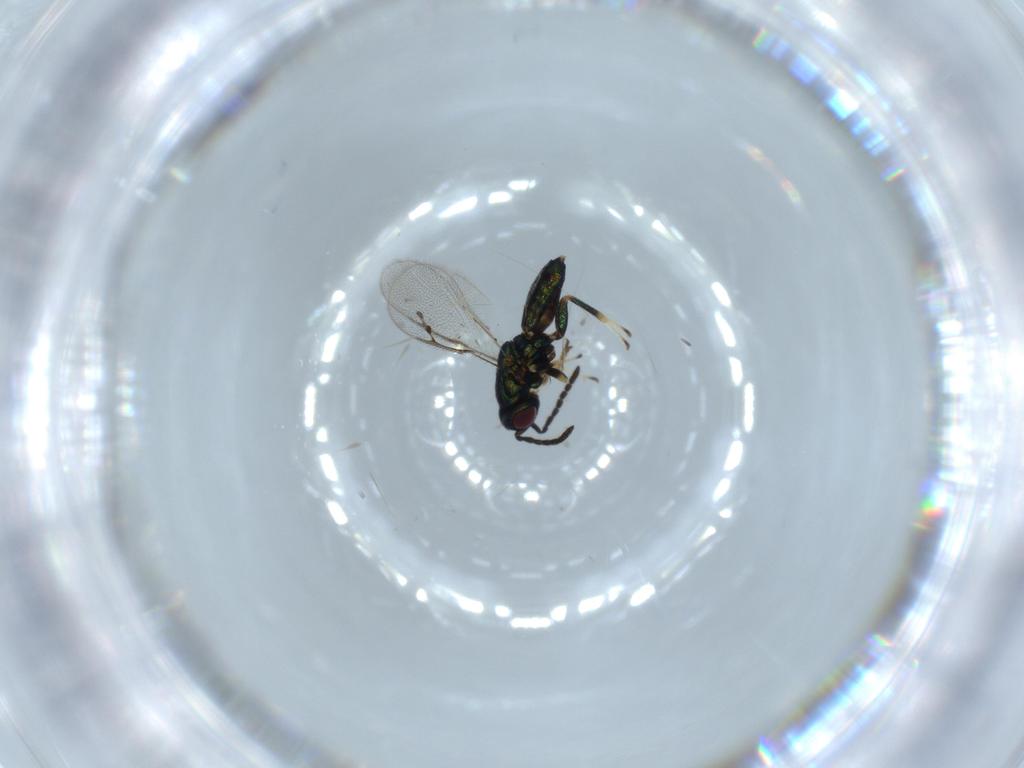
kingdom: Animalia
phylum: Arthropoda
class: Insecta
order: Hymenoptera
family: Pteromalidae
